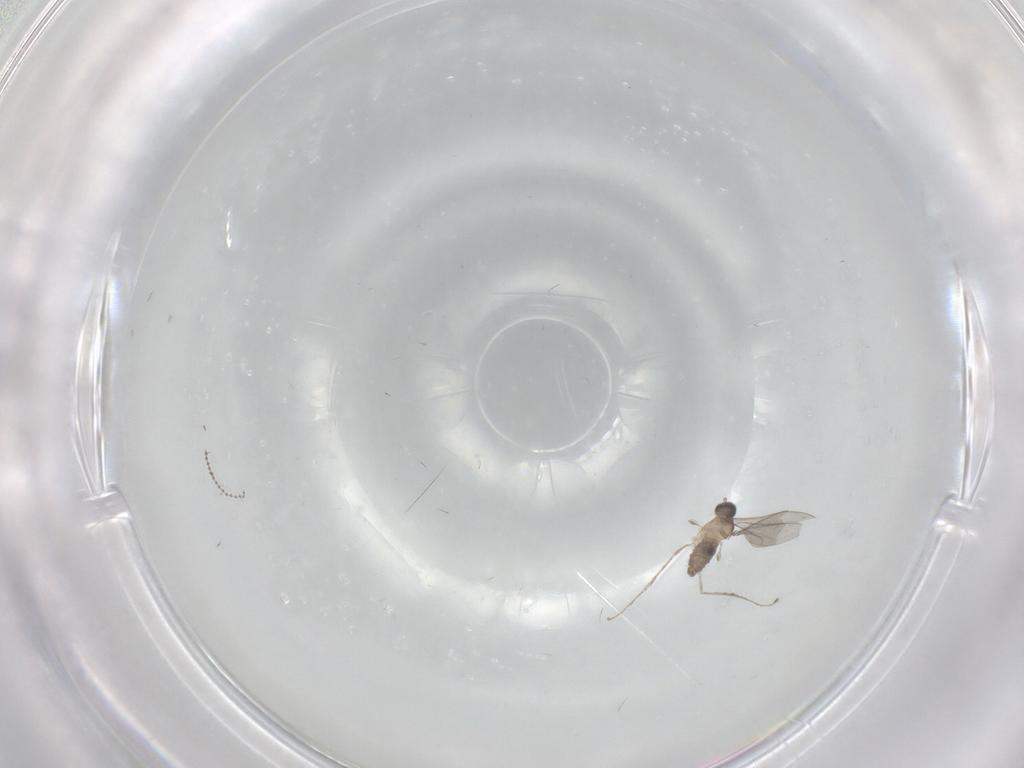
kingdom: Animalia
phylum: Arthropoda
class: Insecta
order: Diptera
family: Cecidomyiidae
